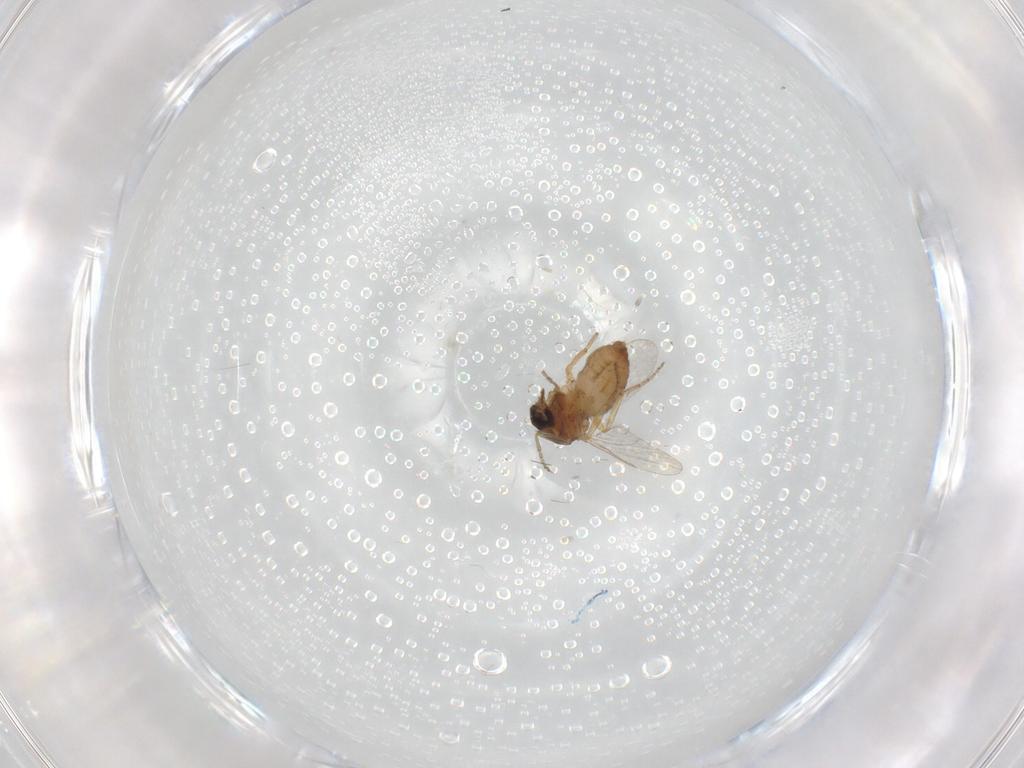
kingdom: Animalia
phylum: Arthropoda
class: Insecta
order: Diptera
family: Ceratopogonidae
